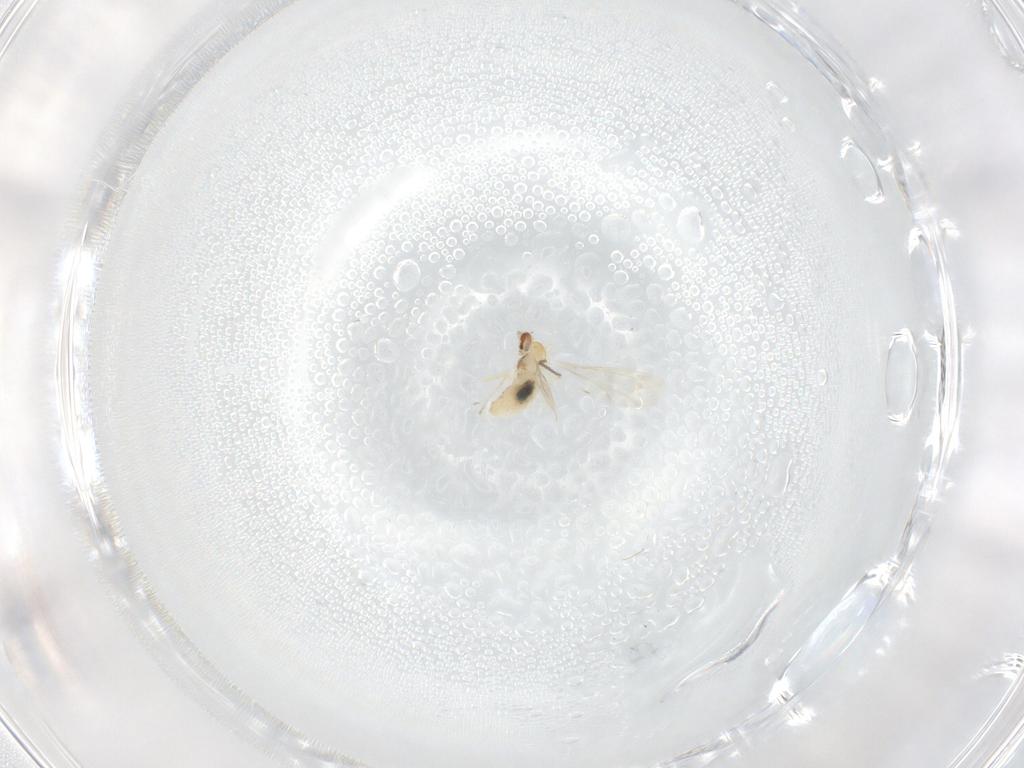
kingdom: Animalia
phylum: Arthropoda
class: Insecta
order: Diptera
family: Cecidomyiidae
